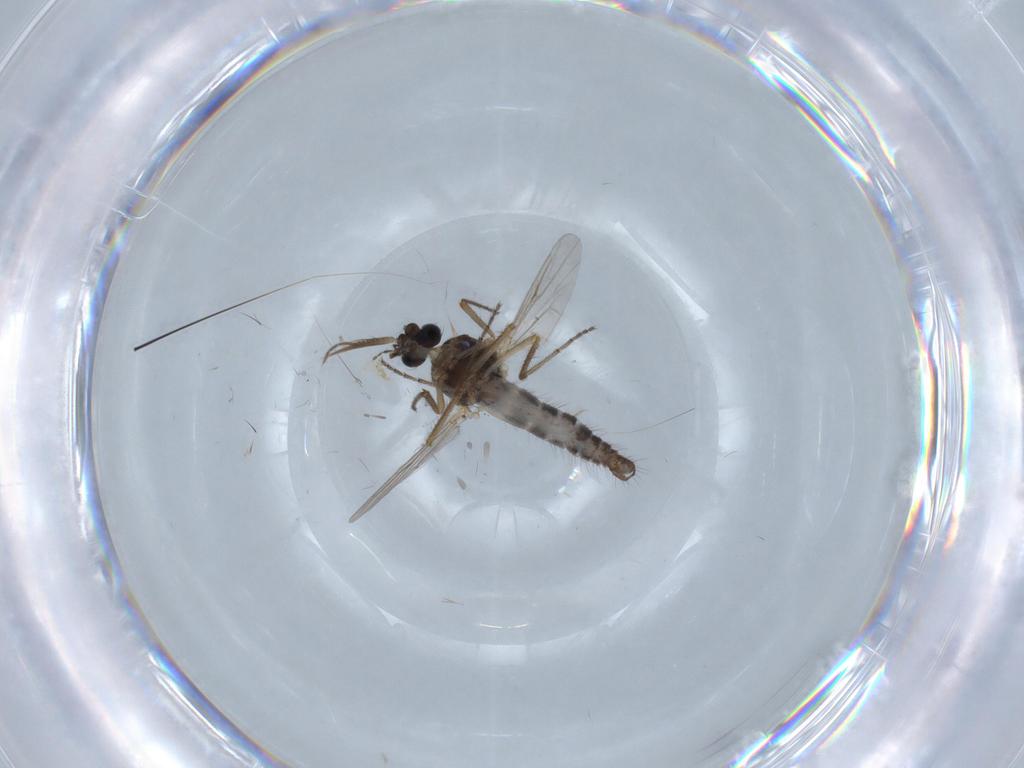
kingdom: Animalia
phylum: Arthropoda
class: Insecta
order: Diptera
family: Ceratopogonidae
